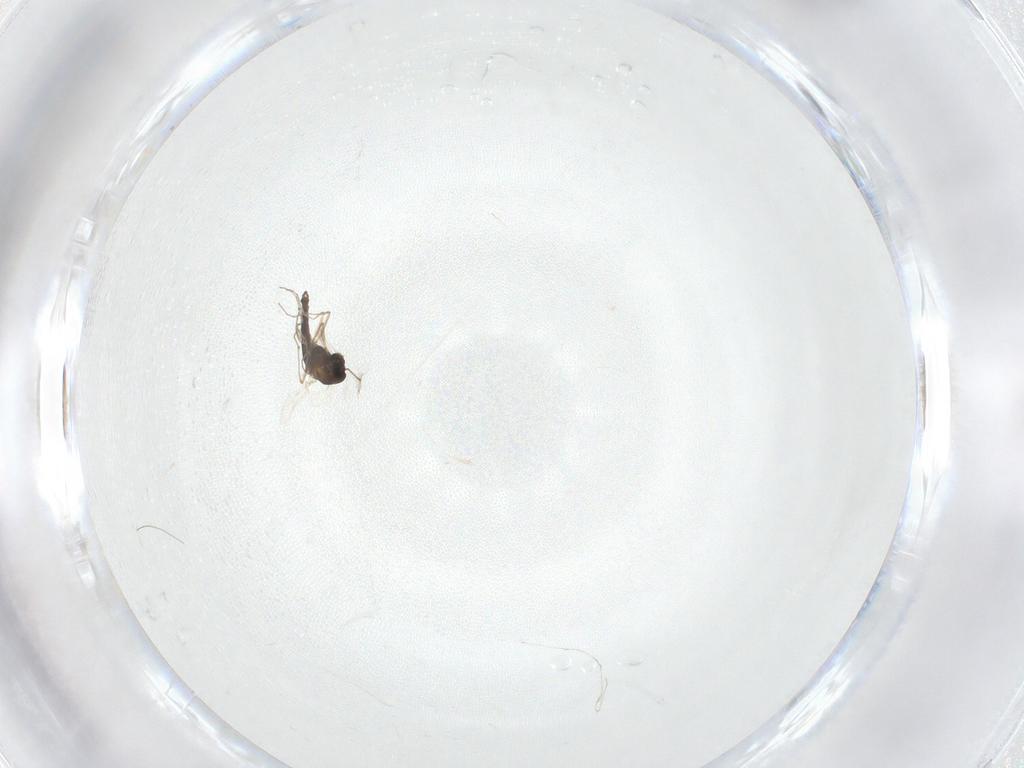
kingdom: Animalia
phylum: Arthropoda
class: Insecta
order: Diptera
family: Chironomidae
